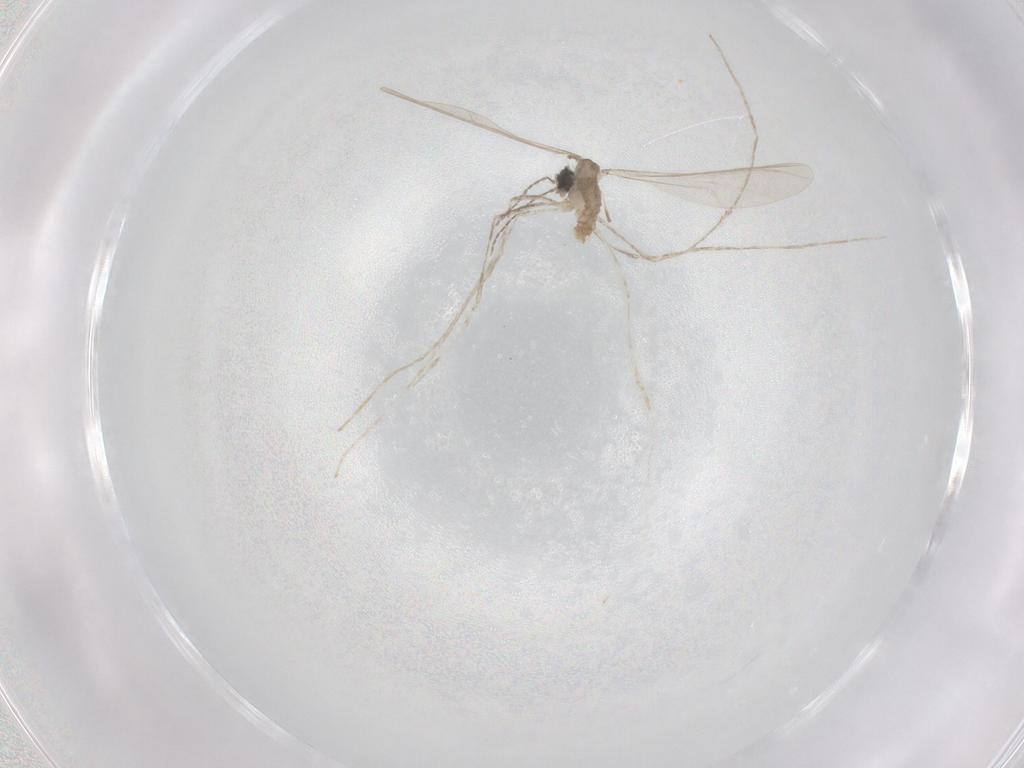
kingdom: Animalia
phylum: Arthropoda
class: Insecta
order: Diptera
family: Cecidomyiidae
